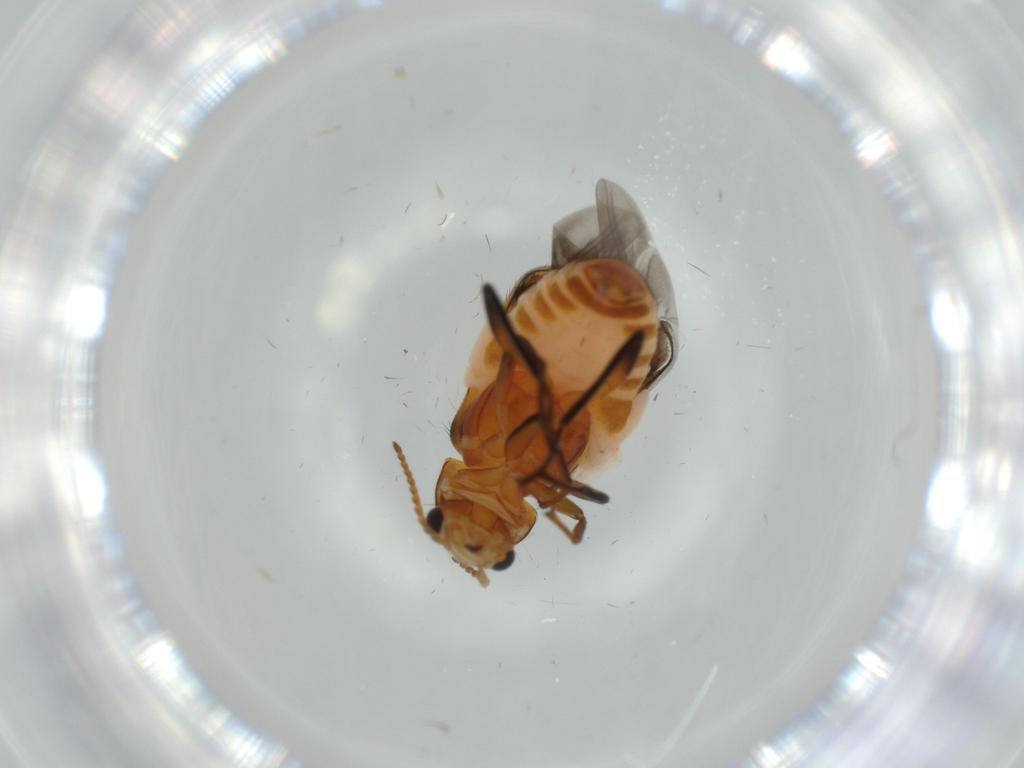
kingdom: Animalia
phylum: Arthropoda
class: Insecta
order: Coleoptera
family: Melyridae
